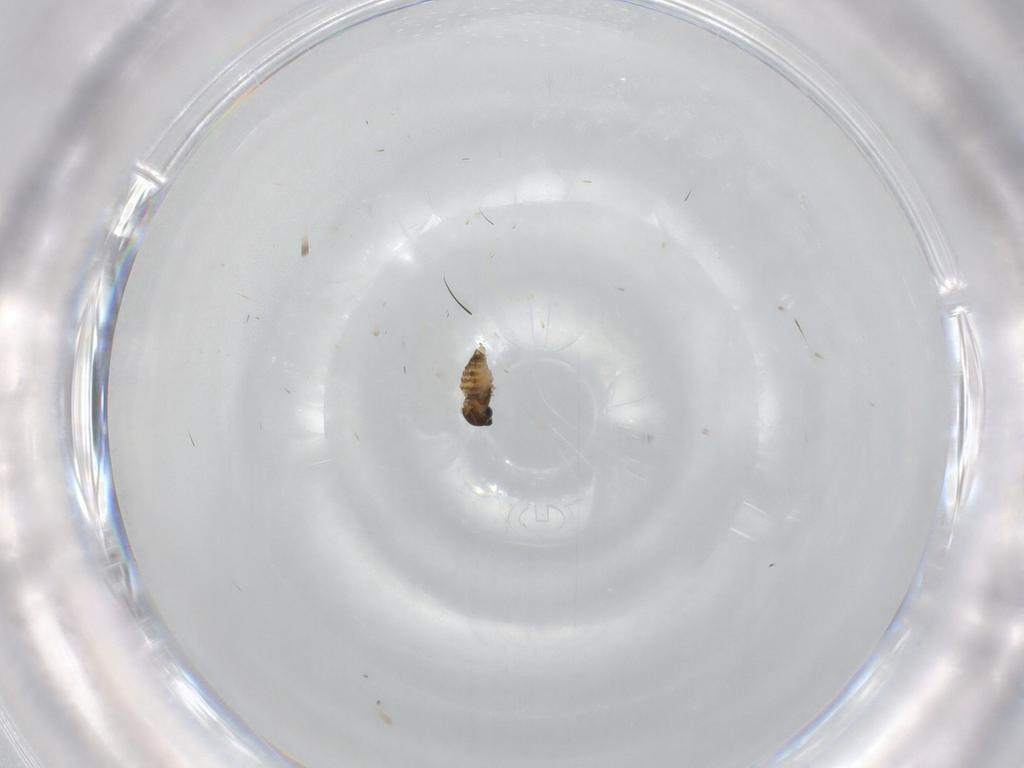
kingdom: Animalia
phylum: Arthropoda
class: Insecta
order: Diptera
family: Cecidomyiidae
